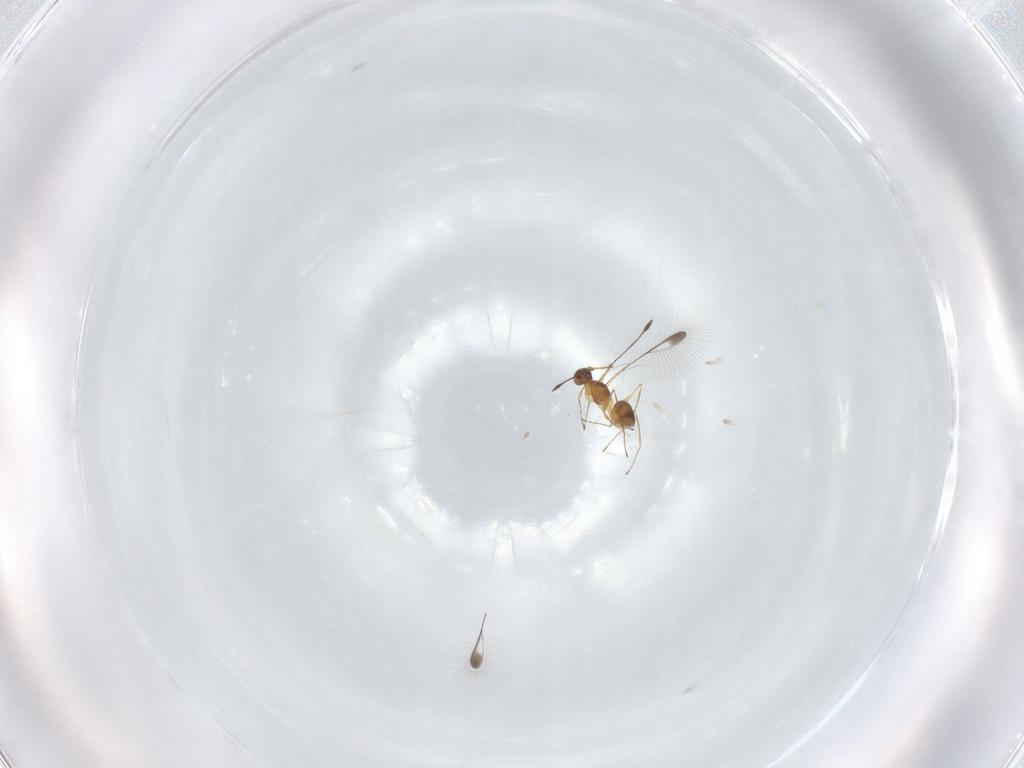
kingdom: Animalia
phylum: Arthropoda
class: Insecta
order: Hymenoptera
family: Mymaridae
